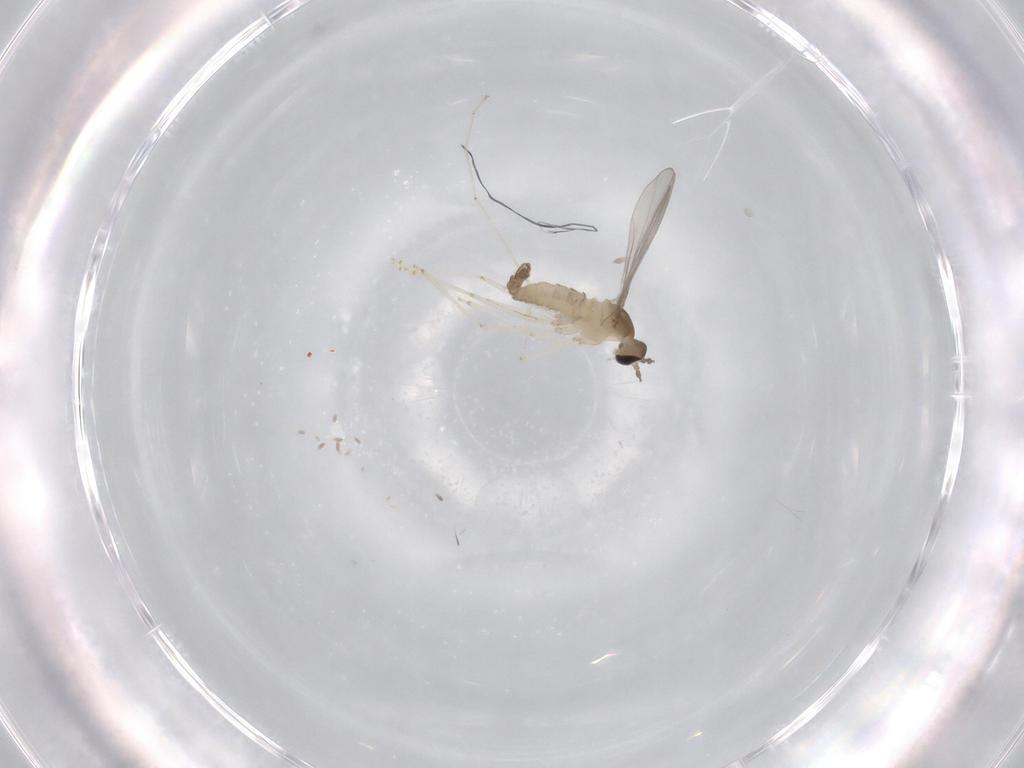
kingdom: Animalia
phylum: Arthropoda
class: Insecta
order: Diptera
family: Cecidomyiidae
